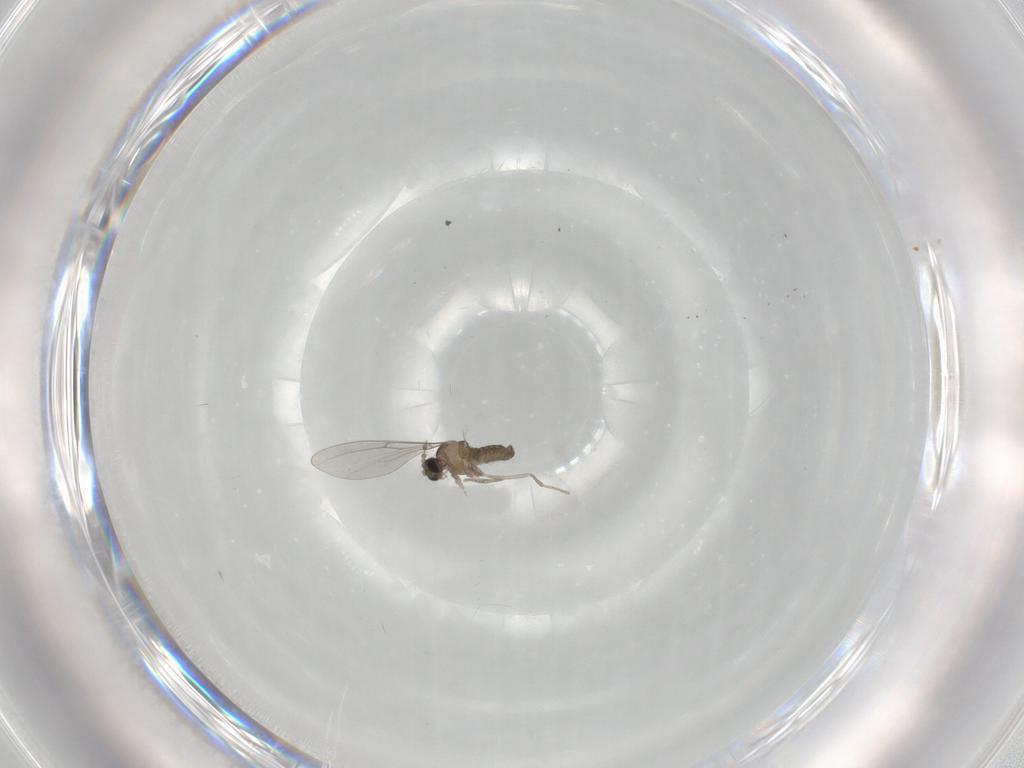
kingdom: Animalia
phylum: Arthropoda
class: Insecta
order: Diptera
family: Cecidomyiidae
